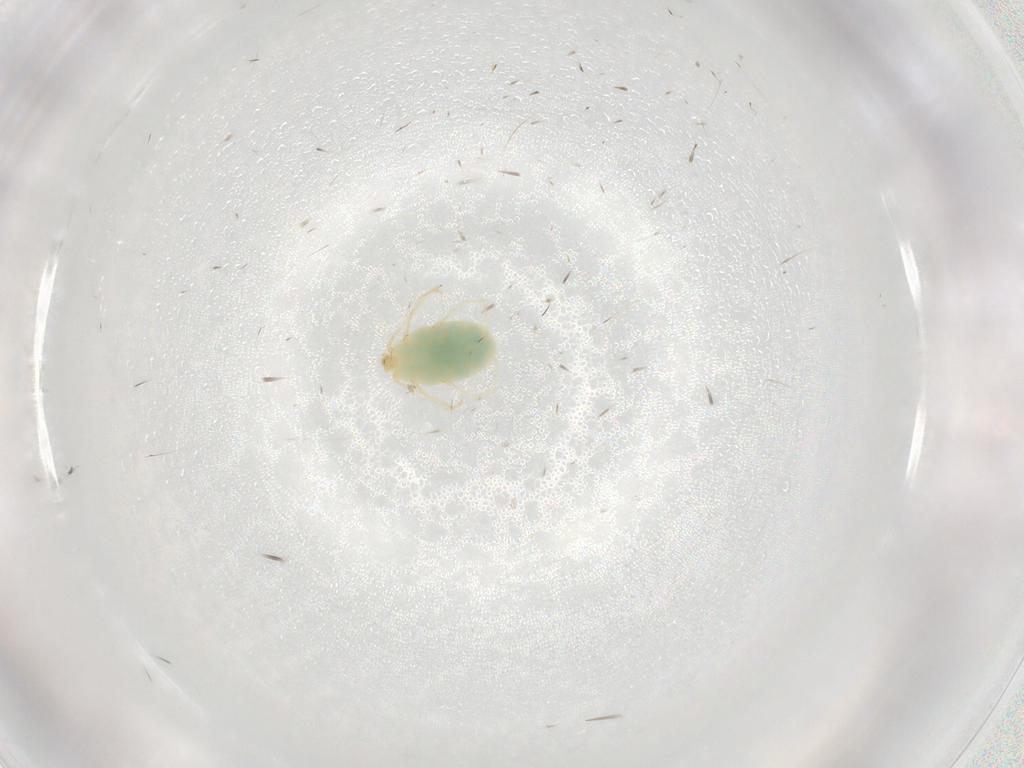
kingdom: Animalia
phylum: Arthropoda
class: Arachnida
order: Trombidiformes
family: Erythraeidae
